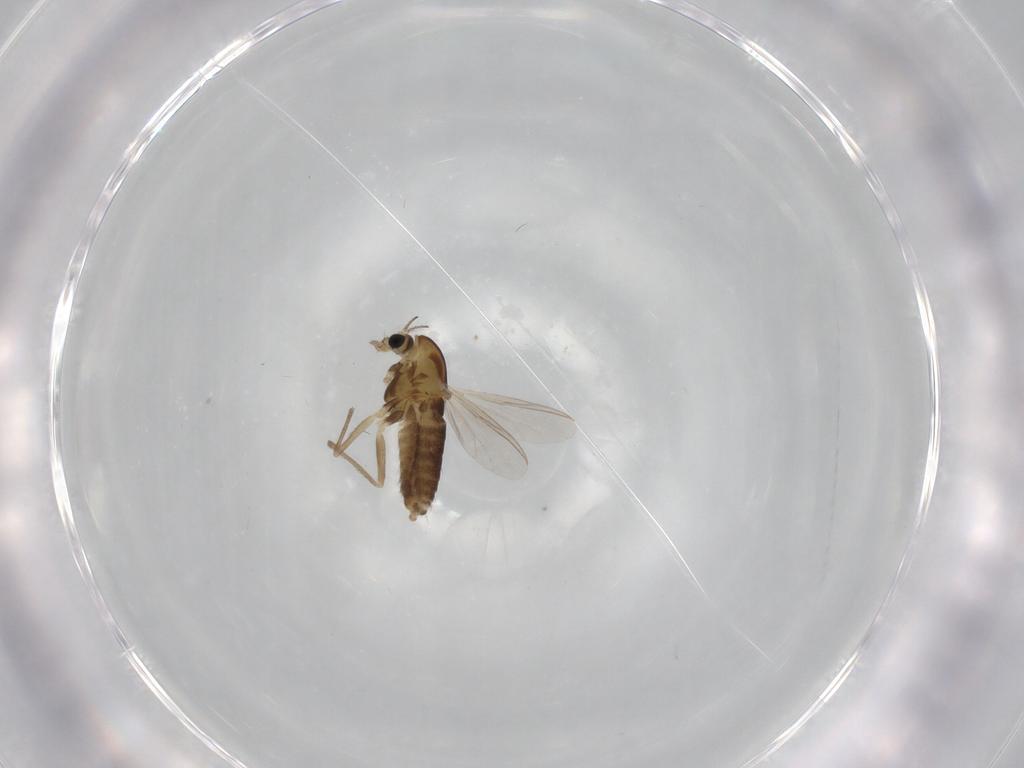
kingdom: Animalia
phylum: Arthropoda
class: Insecta
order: Diptera
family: Chironomidae
